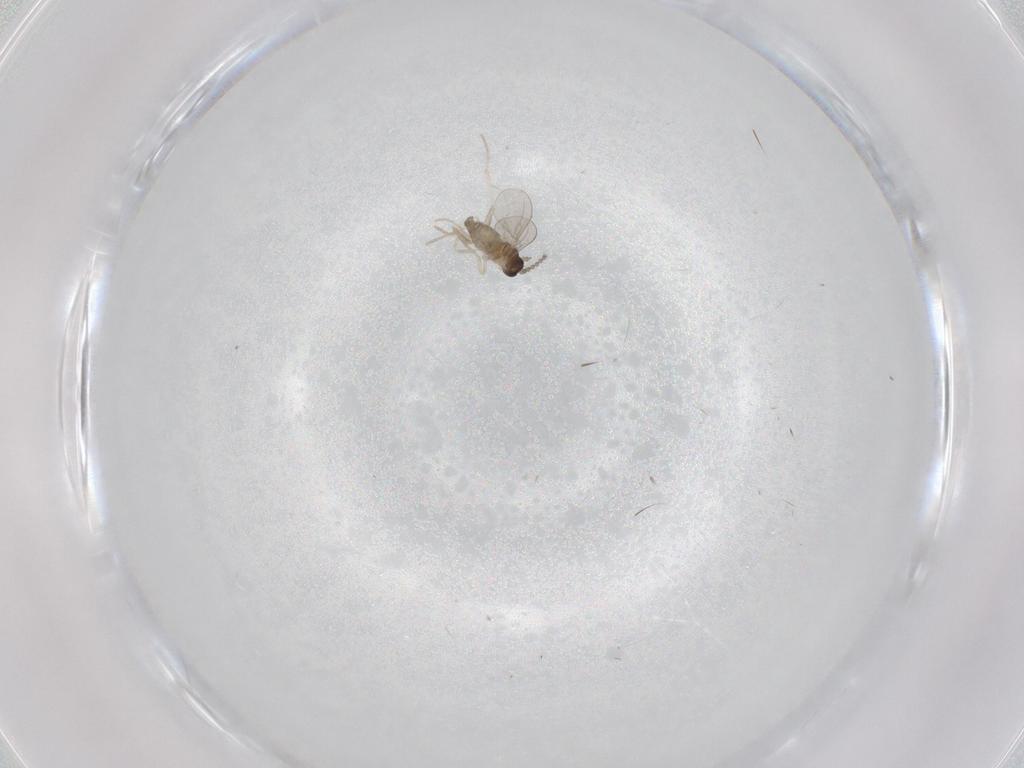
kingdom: Animalia
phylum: Arthropoda
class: Insecta
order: Diptera
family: Cecidomyiidae
